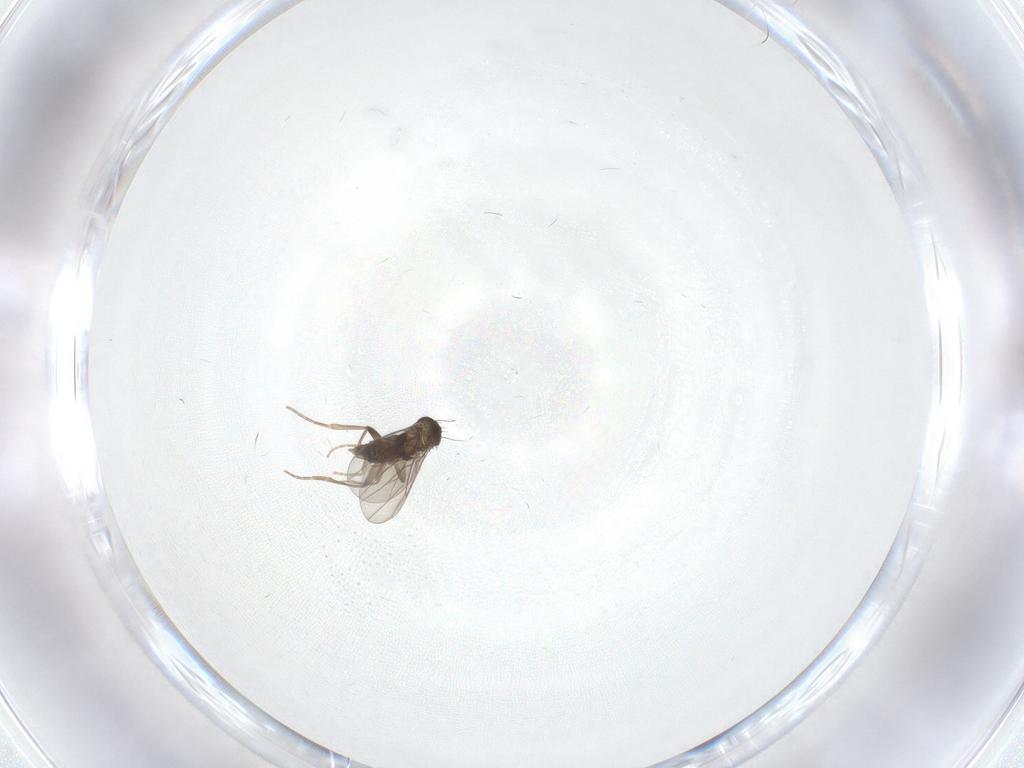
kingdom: Animalia
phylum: Arthropoda
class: Insecta
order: Diptera
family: Phoridae
